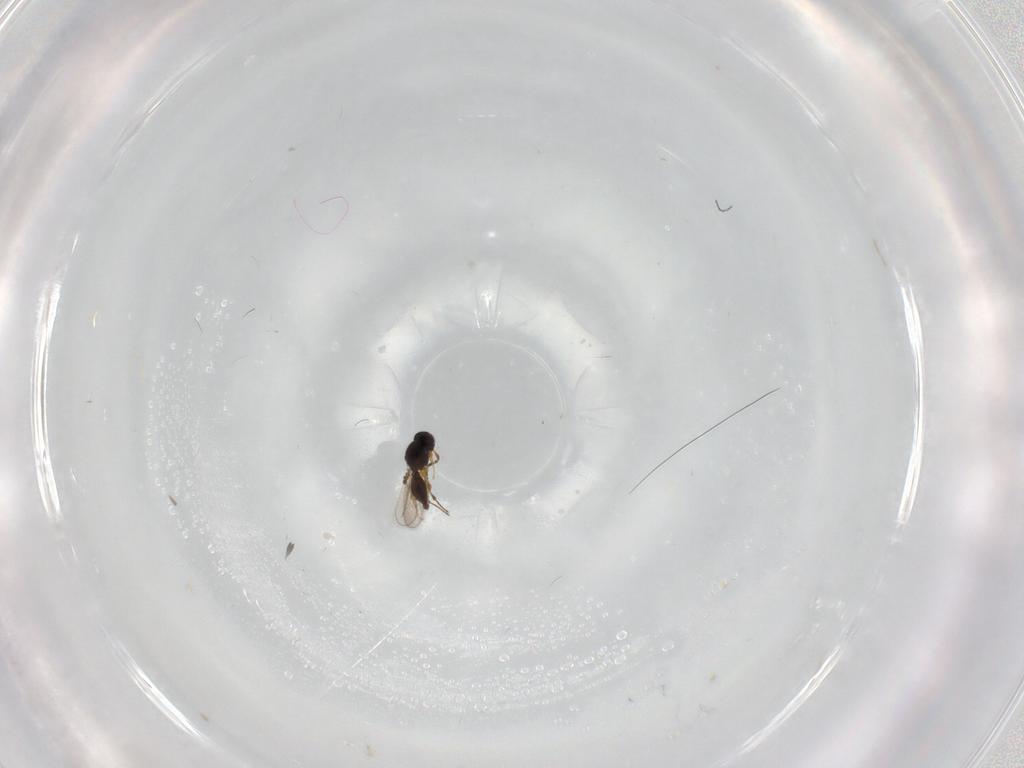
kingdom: Animalia
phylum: Arthropoda
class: Insecta
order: Hymenoptera
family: Platygastridae
